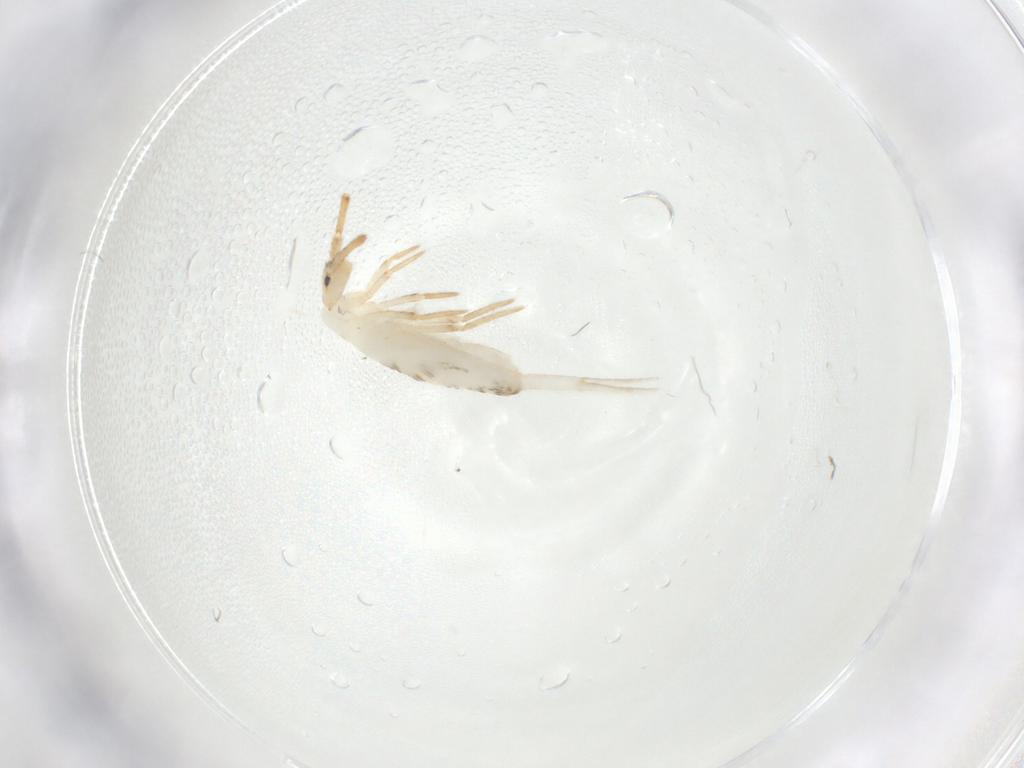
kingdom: Animalia
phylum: Arthropoda
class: Collembola
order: Entomobryomorpha
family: Entomobryidae
